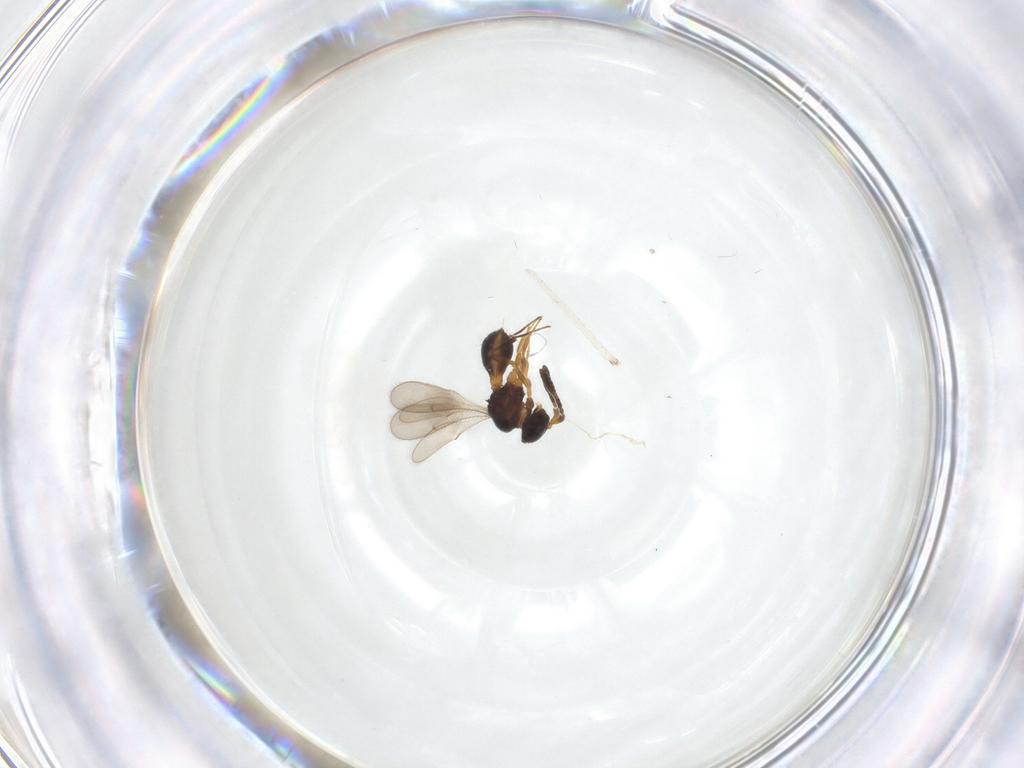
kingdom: Animalia
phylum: Arthropoda
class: Insecta
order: Hymenoptera
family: Scelionidae
